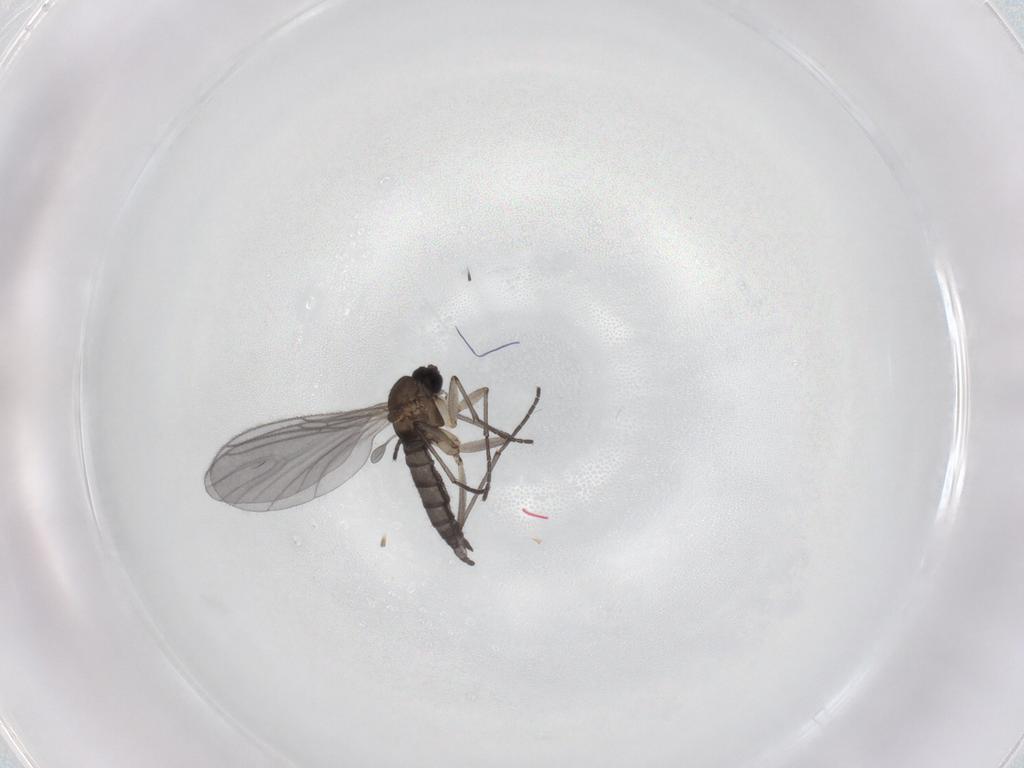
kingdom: Animalia
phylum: Arthropoda
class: Insecta
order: Diptera
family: Sciaridae
